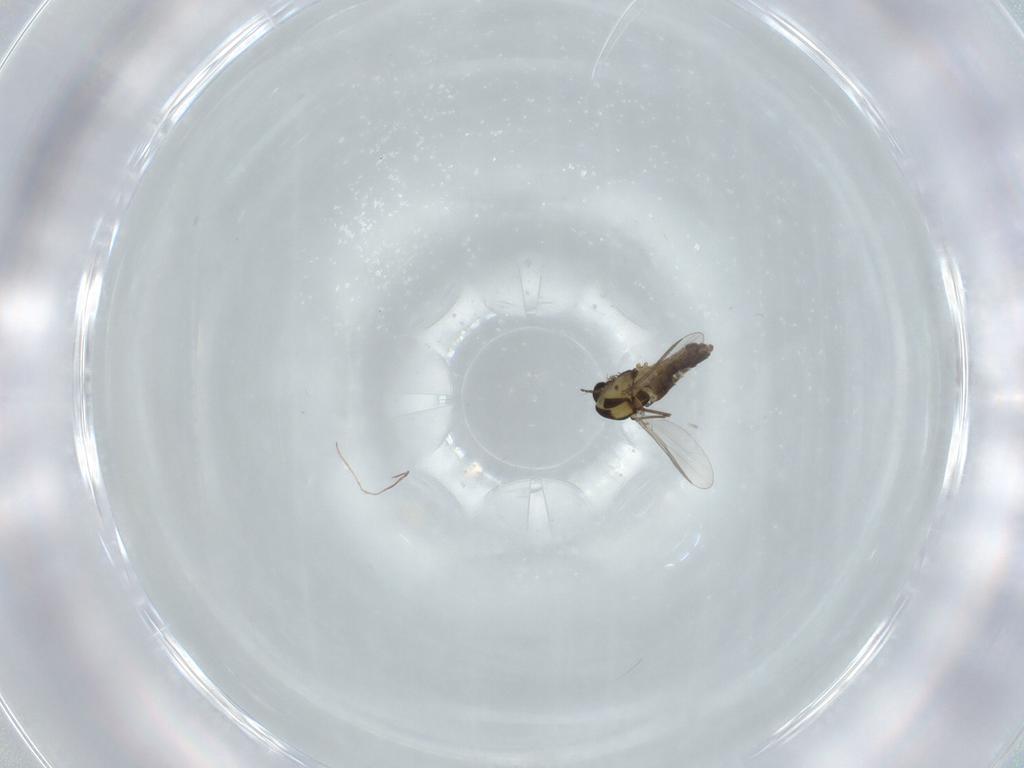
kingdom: Animalia
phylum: Arthropoda
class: Insecta
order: Diptera
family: Chironomidae
